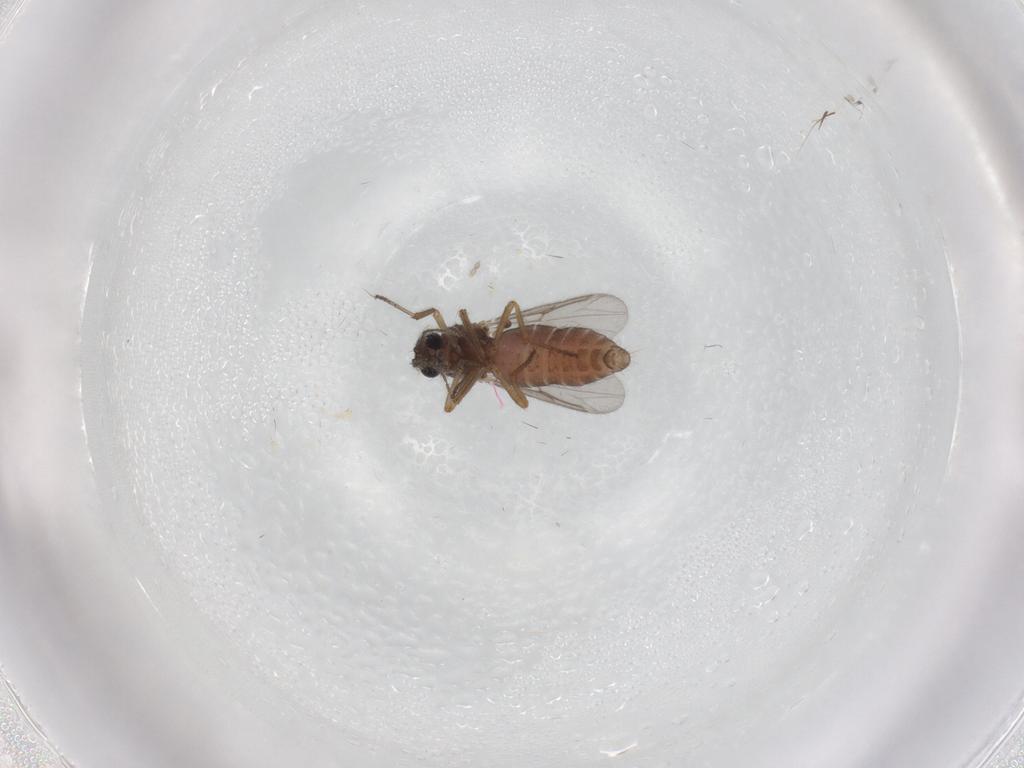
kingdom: Animalia
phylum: Arthropoda
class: Insecta
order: Diptera
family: Ceratopogonidae
